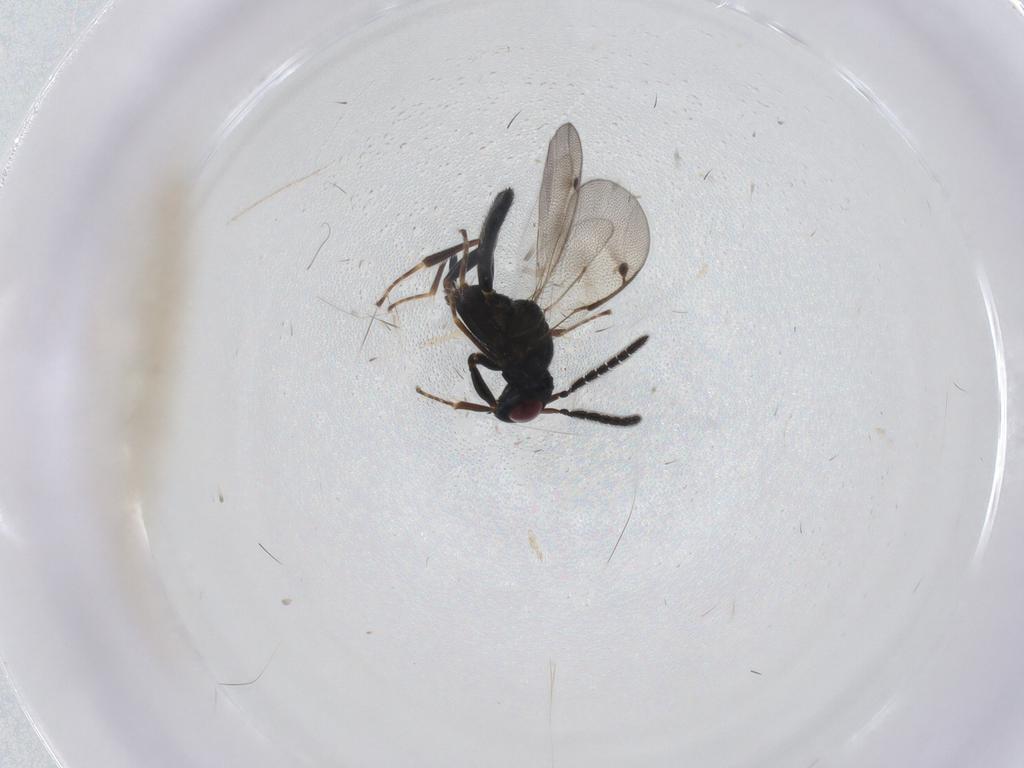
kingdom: Animalia
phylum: Arthropoda
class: Insecta
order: Hymenoptera
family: Pteromalidae
